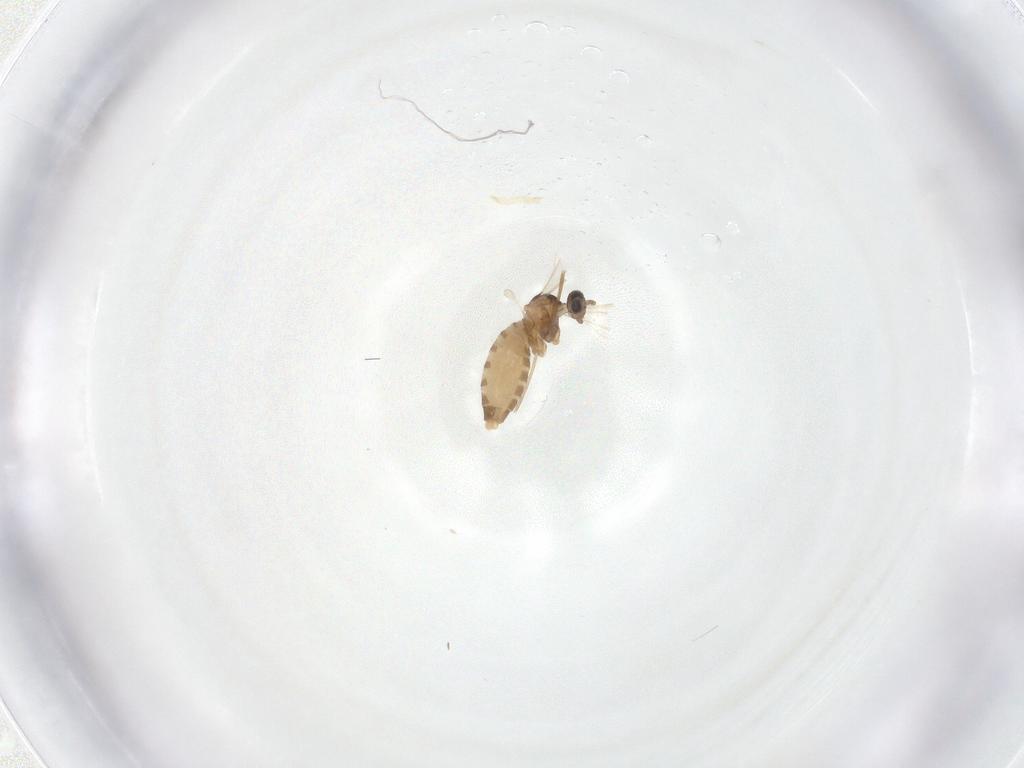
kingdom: Animalia
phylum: Arthropoda
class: Insecta
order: Diptera
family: Cecidomyiidae
